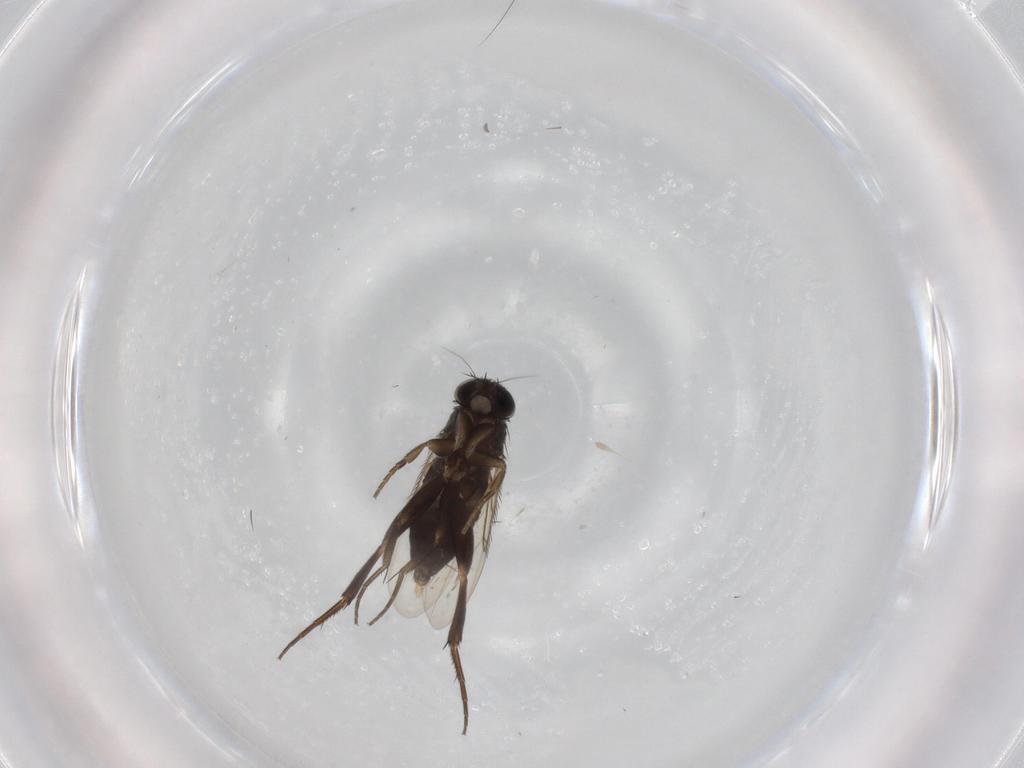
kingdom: Animalia
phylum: Arthropoda
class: Insecta
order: Diptera
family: Phoridae
